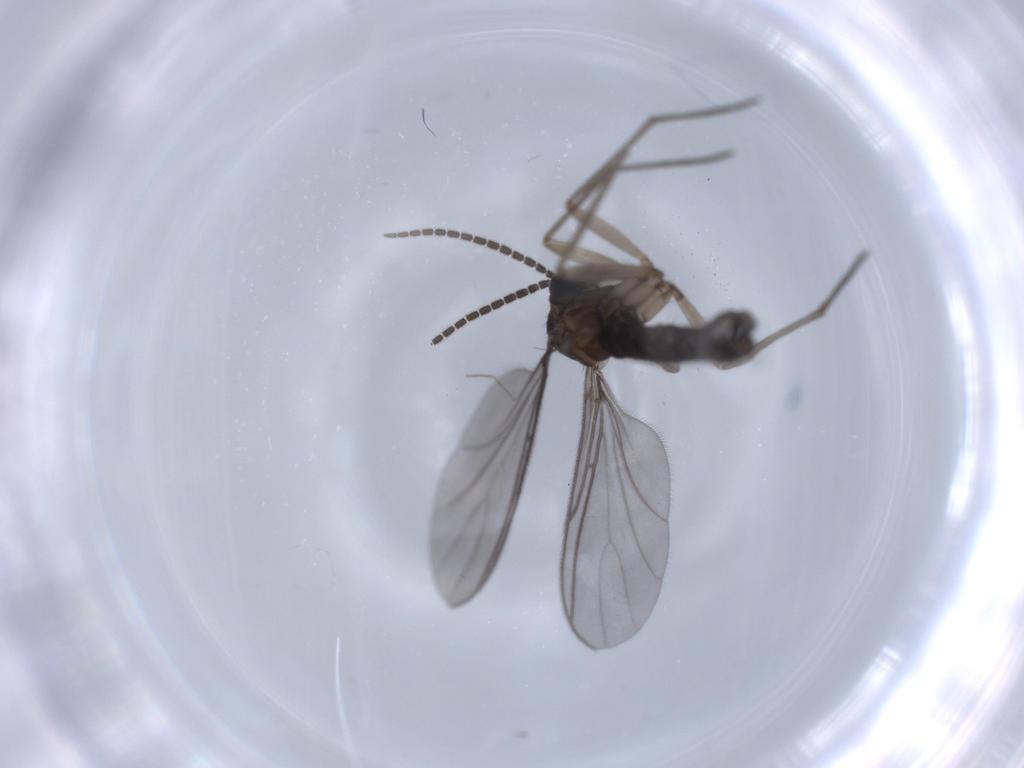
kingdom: Animalia
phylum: Arthropoda
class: Insecta
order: Diptera
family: Sciaridae
